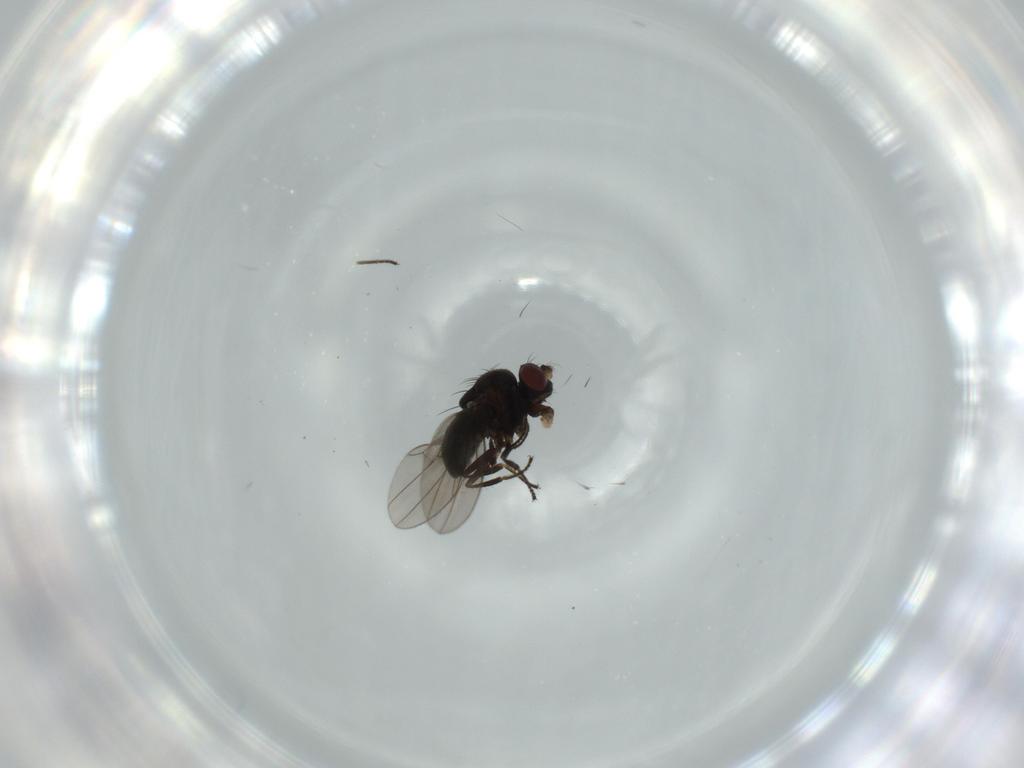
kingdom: Animalia
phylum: Arthropoda
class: Insecta
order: Diptera
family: Ephydridae
